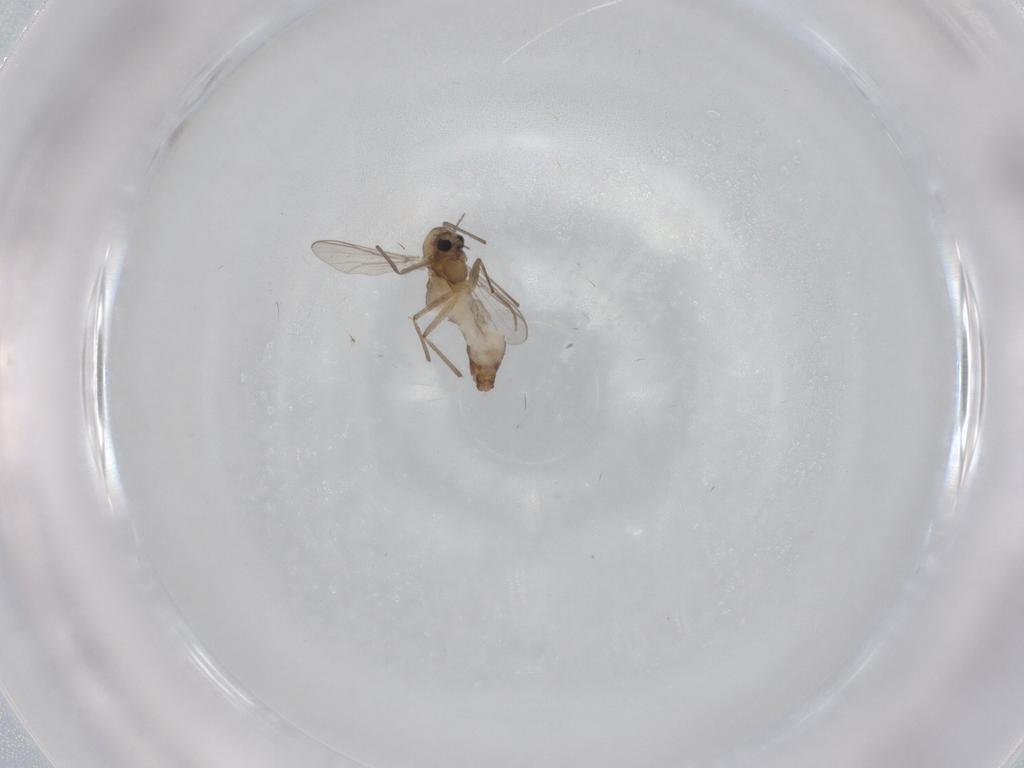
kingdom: Animalia
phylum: Arthropoda
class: Insecta
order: Diptera
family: Chironomidae
